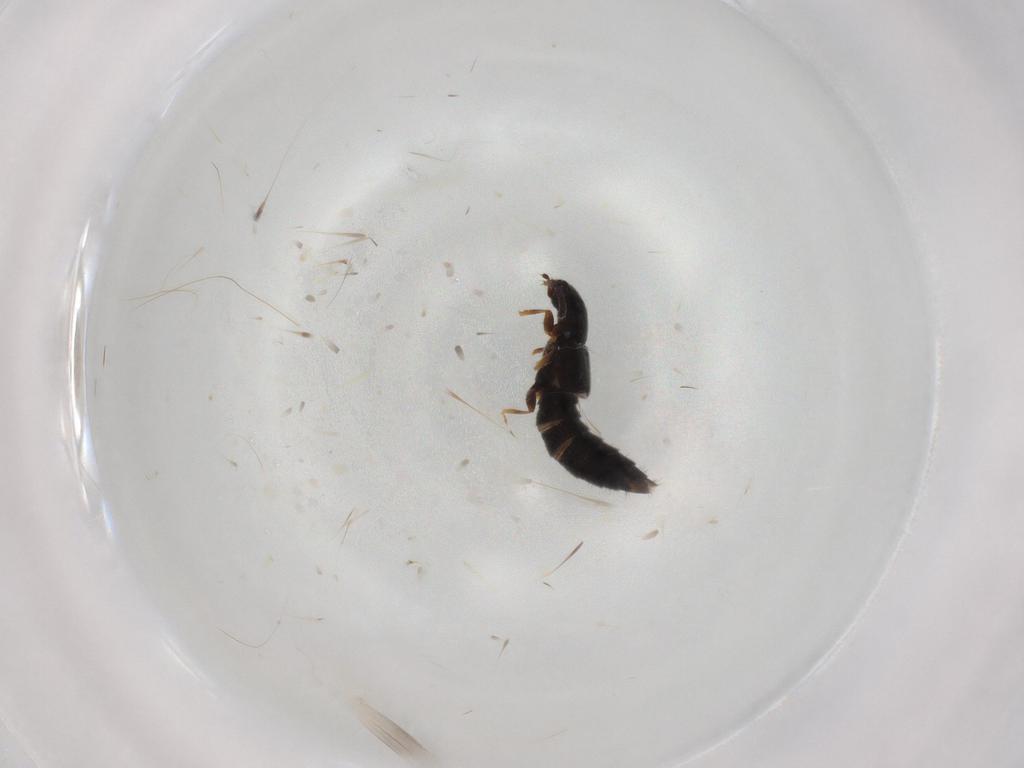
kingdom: Animalia
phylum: Arthropoda
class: Insecta
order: Coleoptera
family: Staphylinidae
